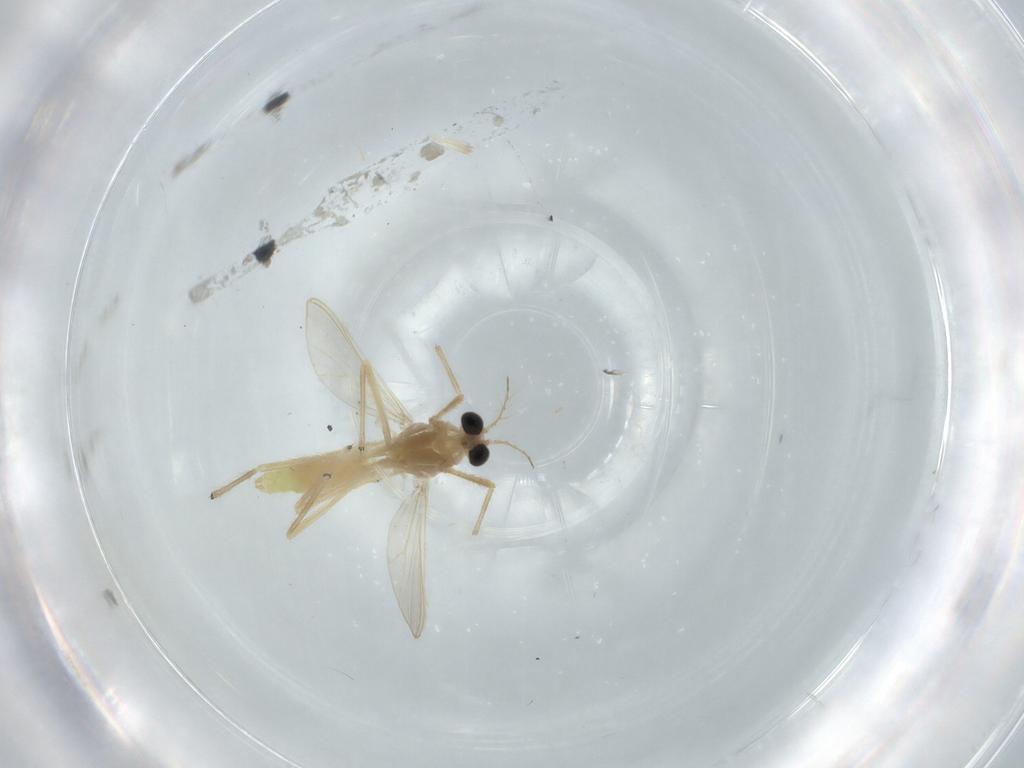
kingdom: Animalia
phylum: Arthropoda
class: Insecta
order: Diptera
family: Chironomidae
